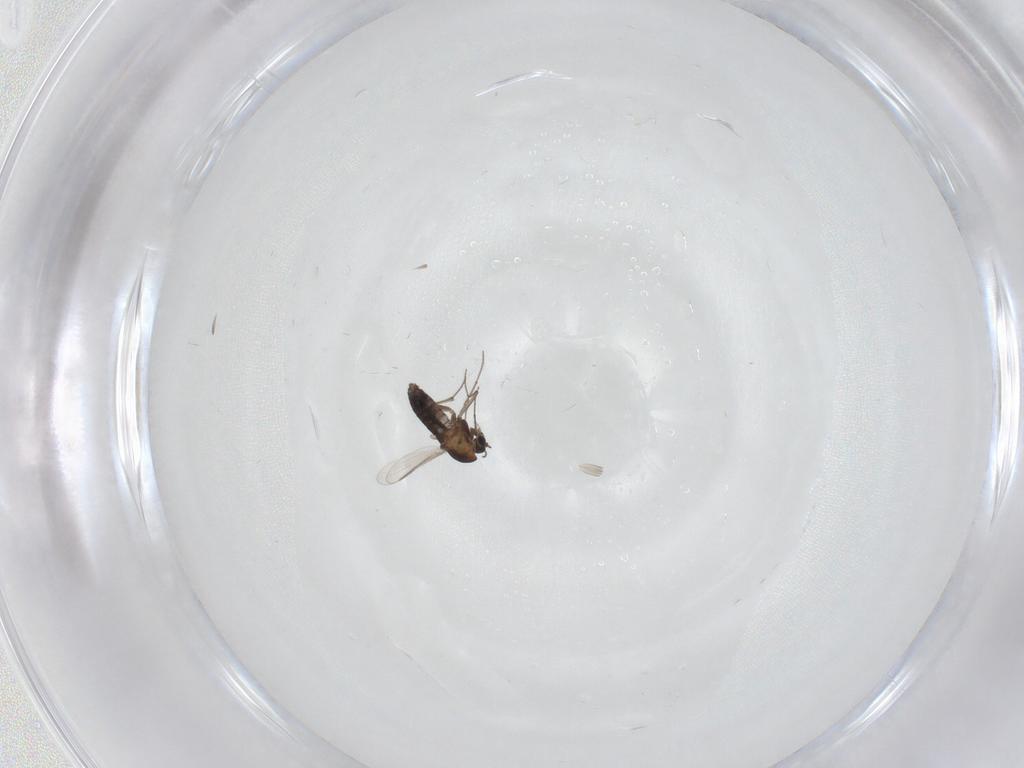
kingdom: Animalia
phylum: Arthropoda
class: Insecta
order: Diptera
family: Chironomidae
